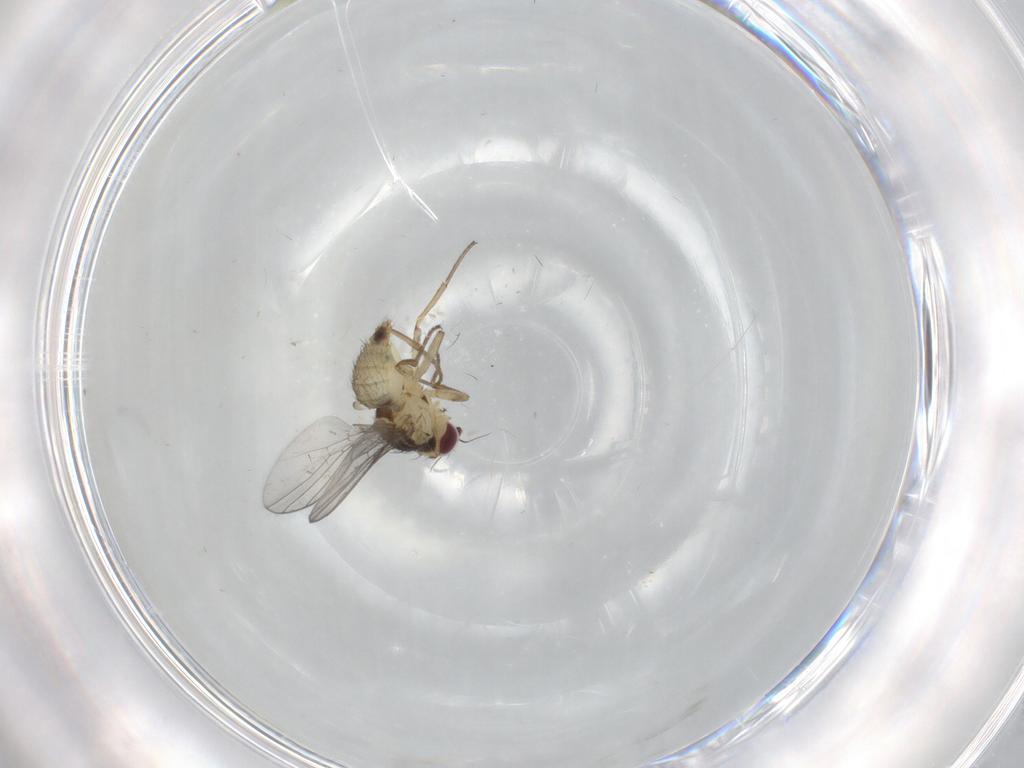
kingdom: Animalia
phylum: Arthropoda
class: Insecta
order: Diptera
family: Agromyzidae
